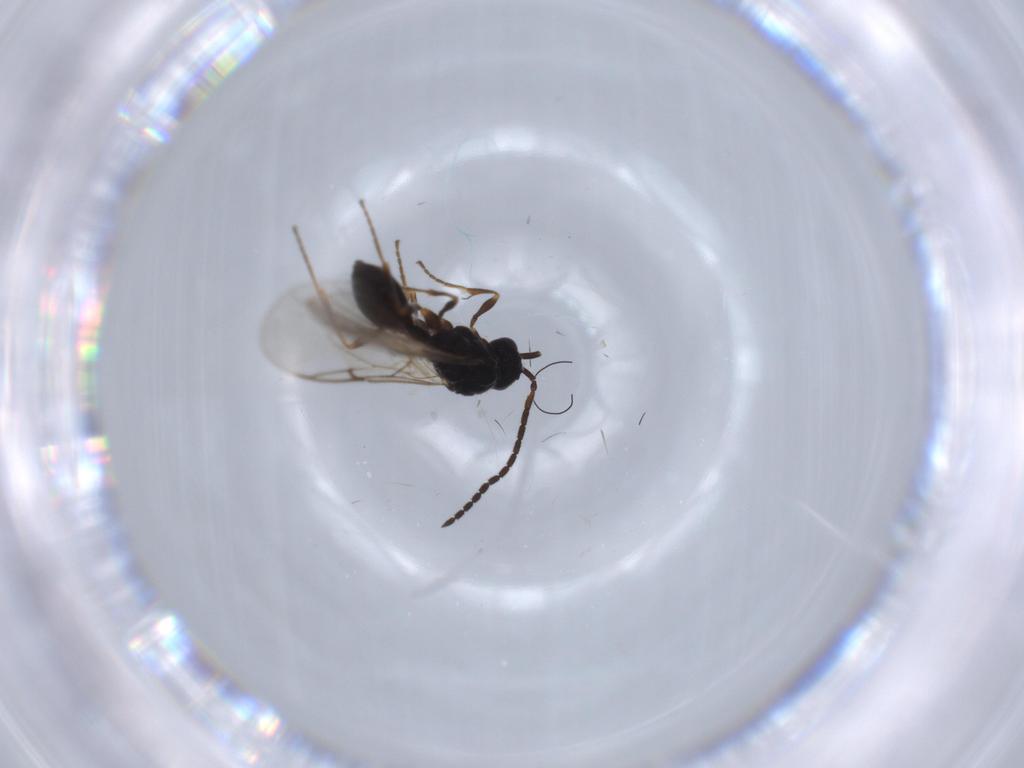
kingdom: Animalia
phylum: Arthropoda
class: Insecta
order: Hymenoptera
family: Diapriidae
